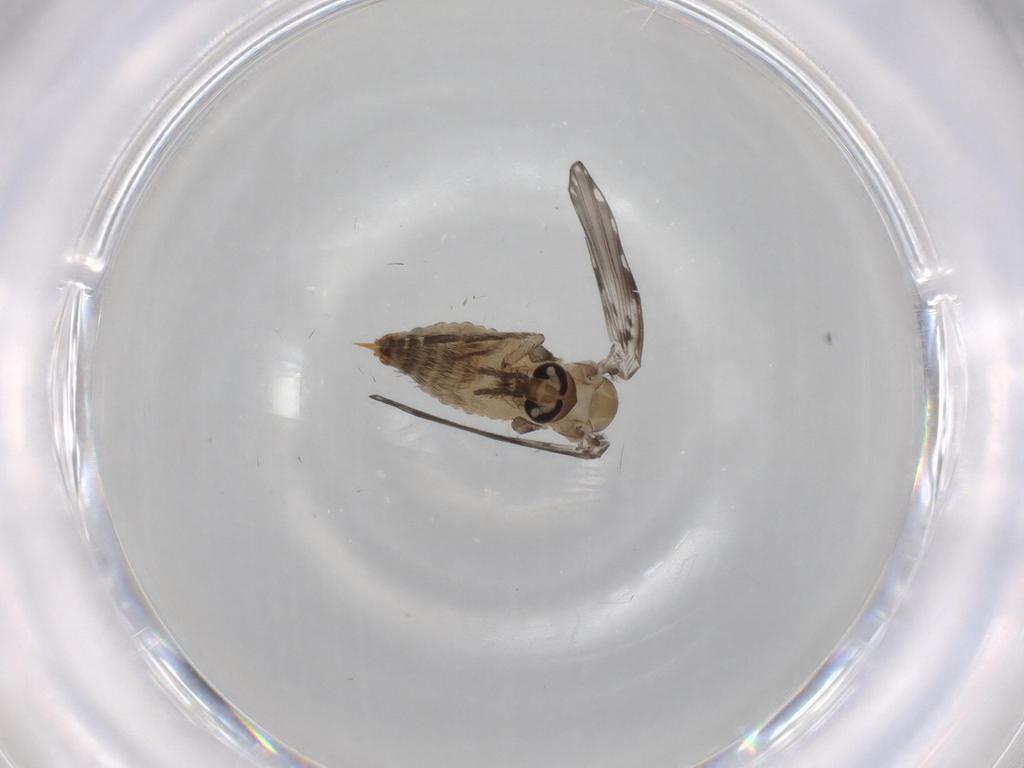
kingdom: Animalia
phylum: Arthropoda
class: Insecta
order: Diptera
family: Psychodidae
